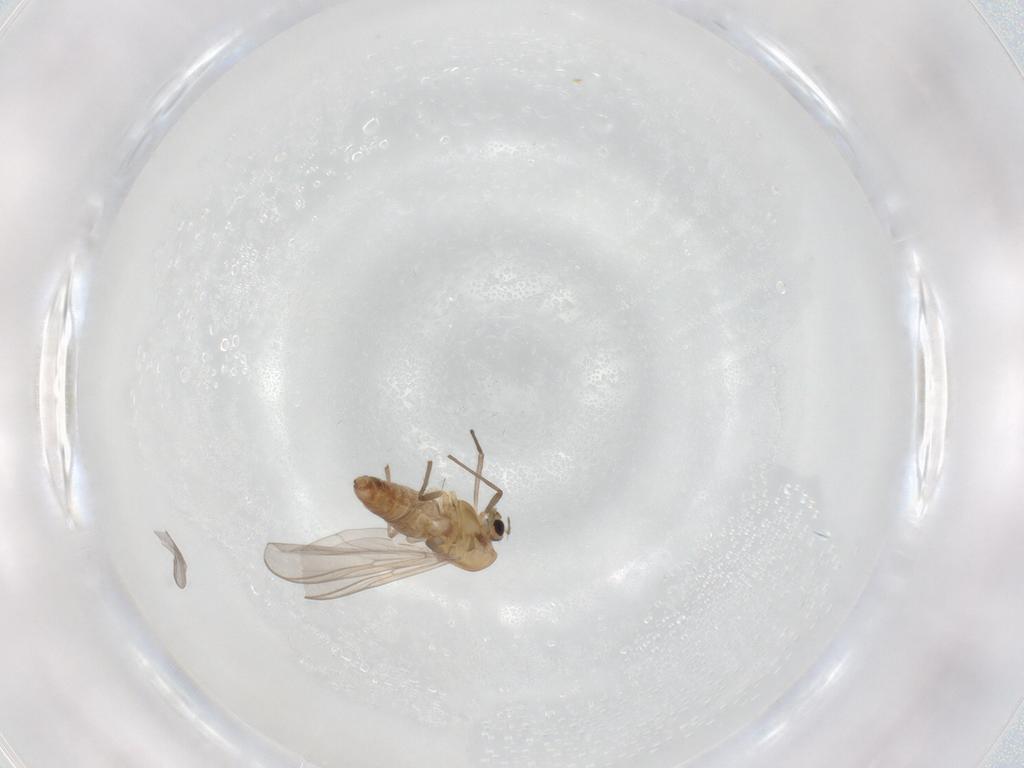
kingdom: Animalia
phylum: Arthropoda
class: Insecta
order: Diptera
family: Chironomidae
